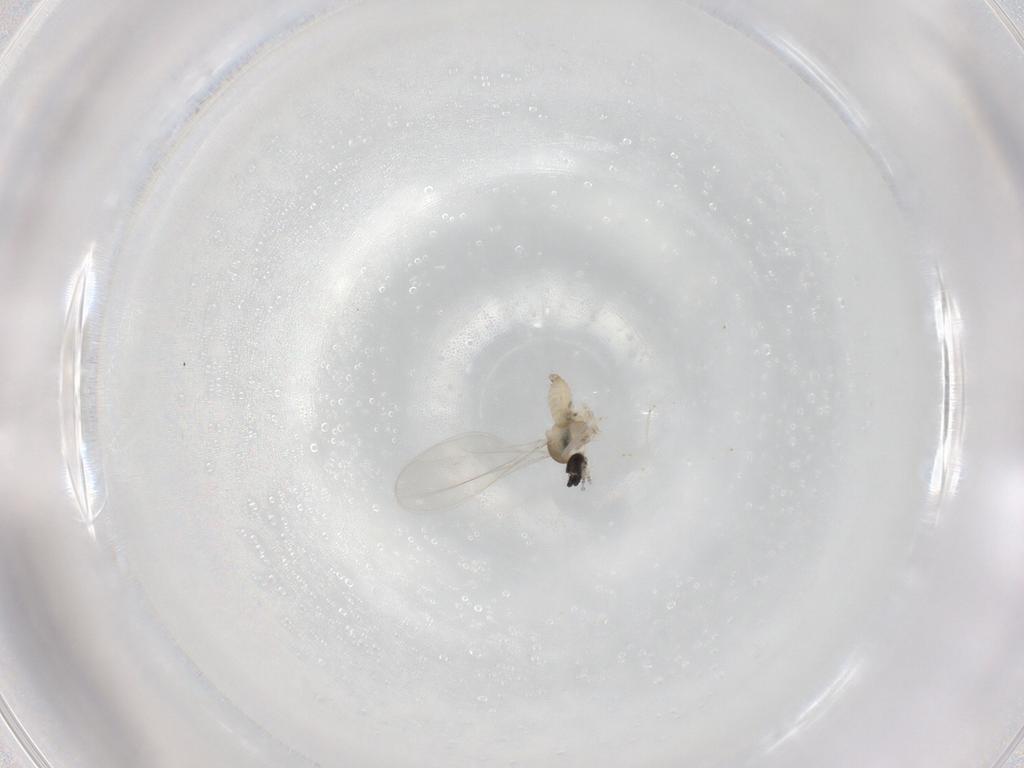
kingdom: Animalia
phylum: Arthropoda
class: Insecta
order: Diptera
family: Cecidomyiidae
